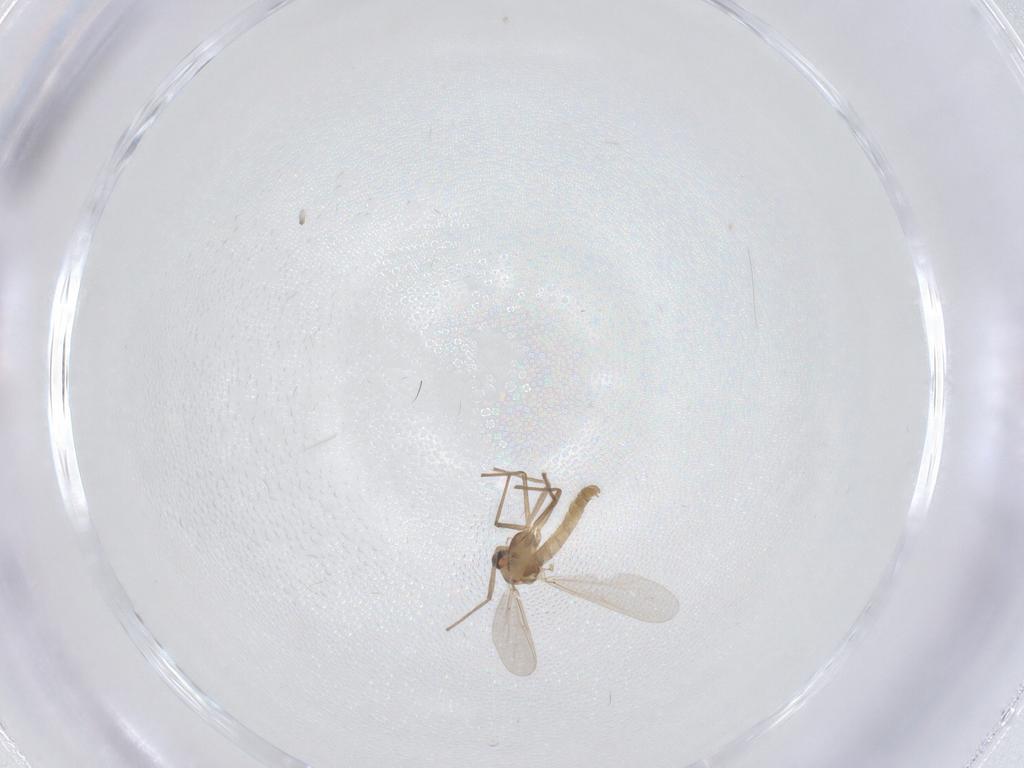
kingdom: Animalia
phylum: Arthropoda
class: Insecta
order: Diptera
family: Limoniidae
